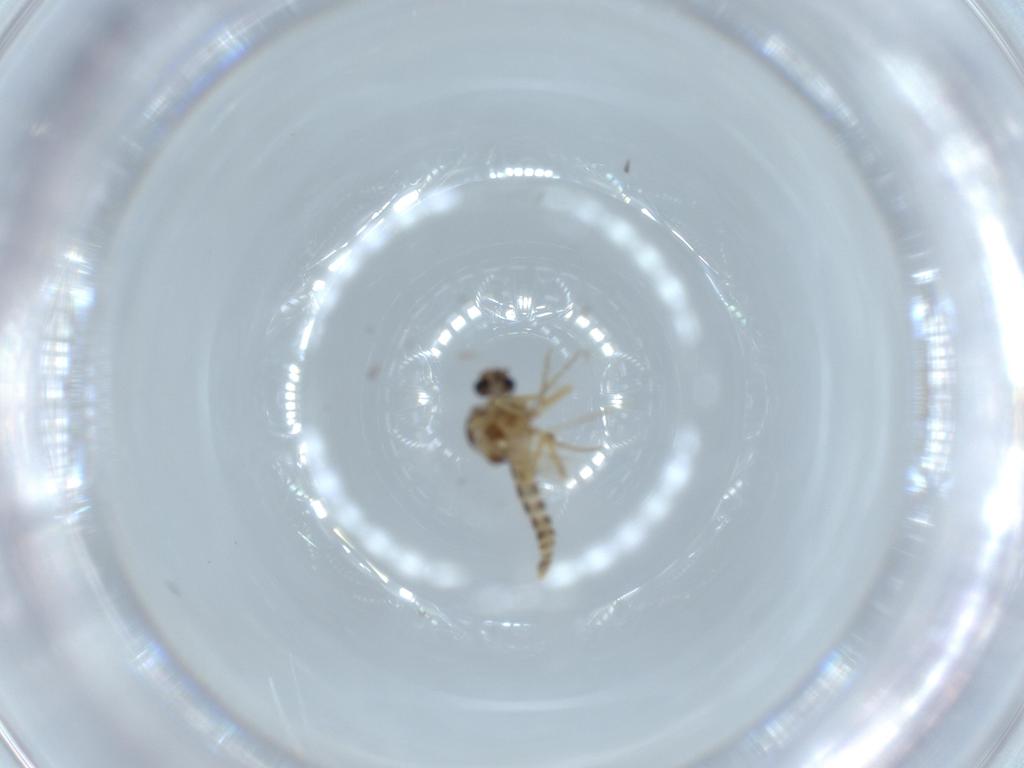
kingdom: Animalia
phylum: Arthropoda
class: Insecta
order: Diptera
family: Ceratopogonidae
